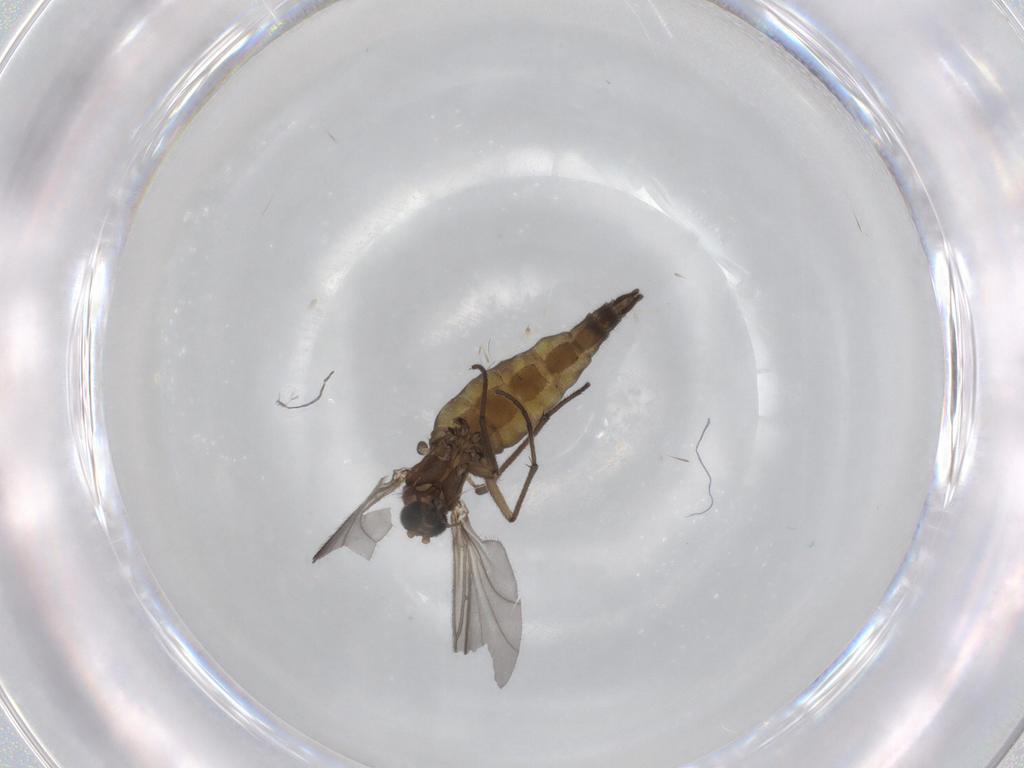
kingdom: Animalia
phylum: Arthropoda
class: Insecta
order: Diptera
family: Sciaridae
